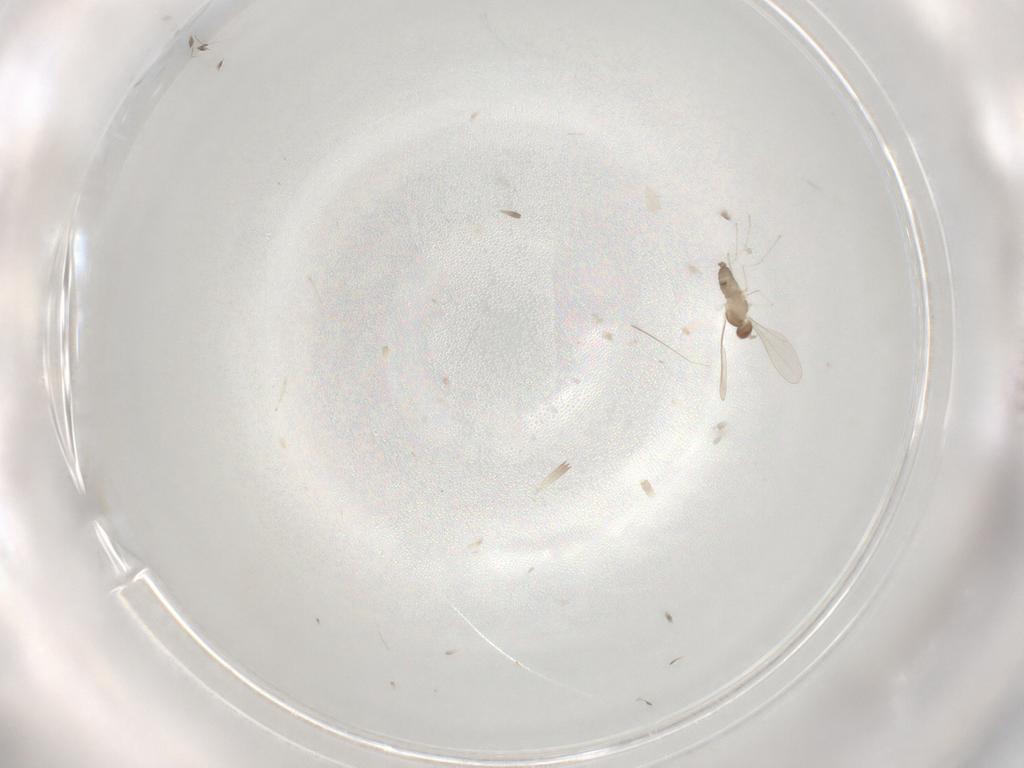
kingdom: Animalia
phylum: Arthropoda
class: Insecta
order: Diptera
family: Cecidomyiidae
